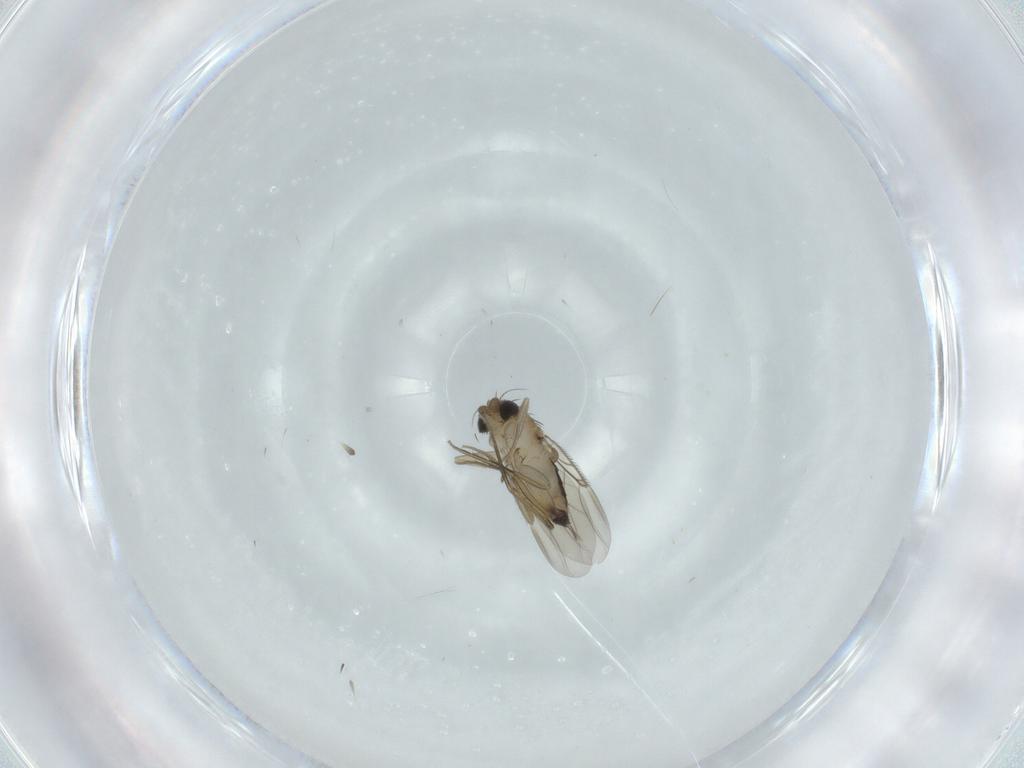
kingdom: Animalia
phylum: Arthropoda
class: Insecta
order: Diptera
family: Phoridae
